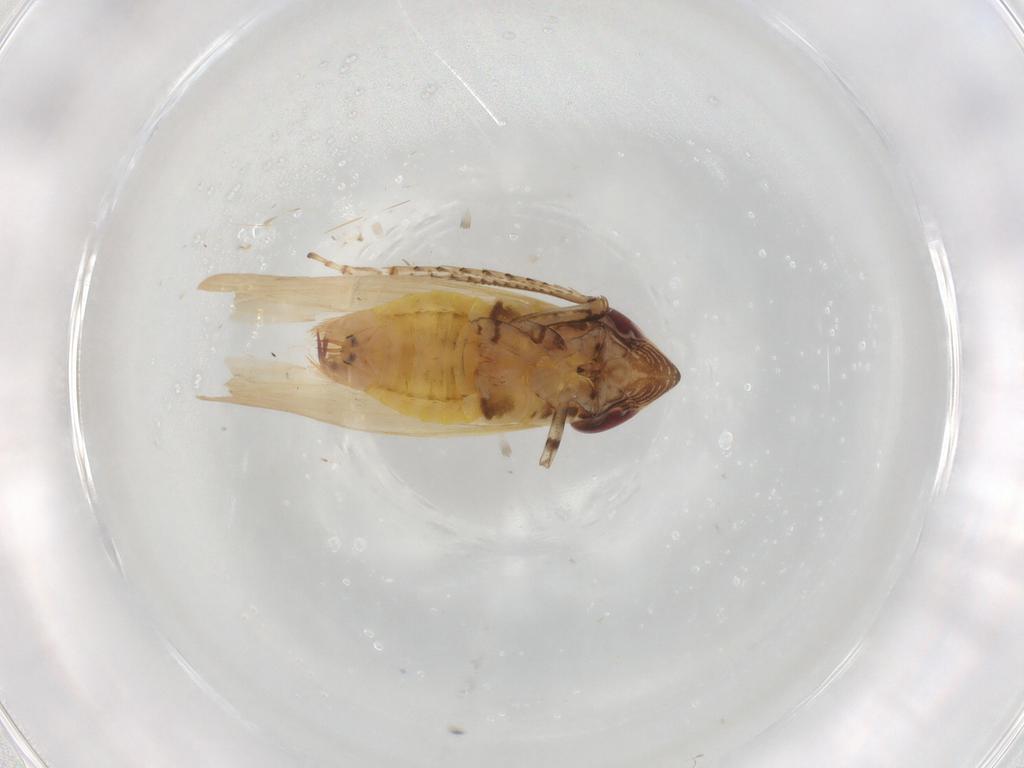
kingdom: Animalia
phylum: Arthropoda
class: Insecta
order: Hemiptera
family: Cicadellidae
